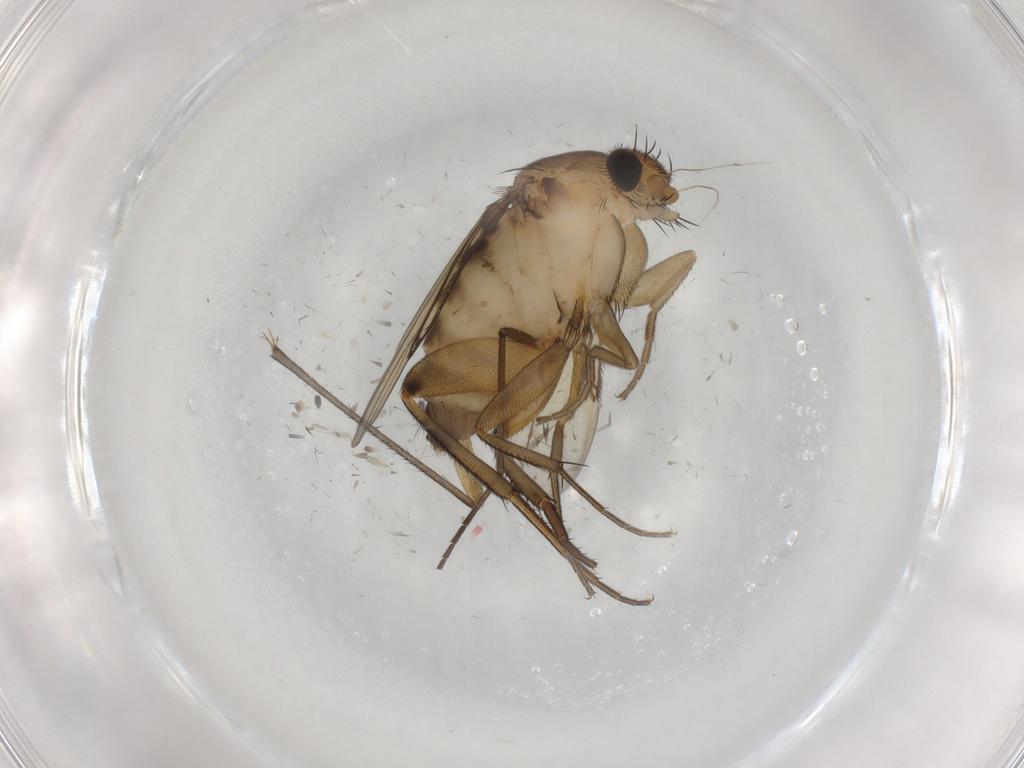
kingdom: Animalia
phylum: Arthropoda
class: Insecta
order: Diptera
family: Phoridae
